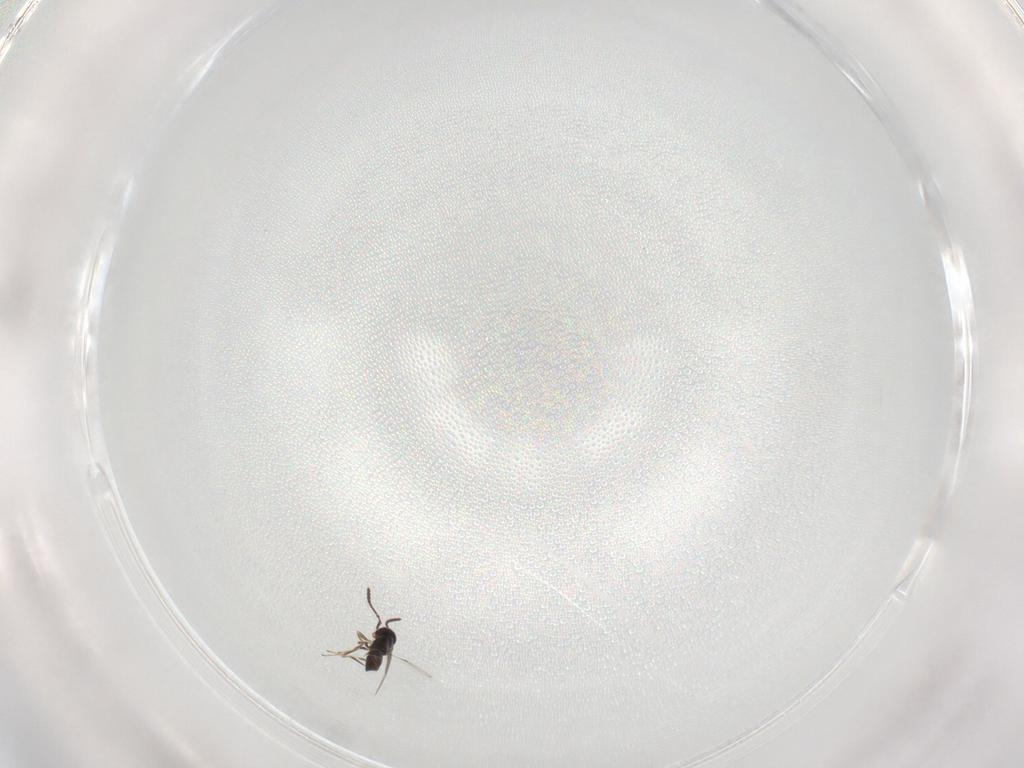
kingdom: Animalia
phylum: Arthropoda
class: Insecta
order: Hymenoptera
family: Scelionidae
